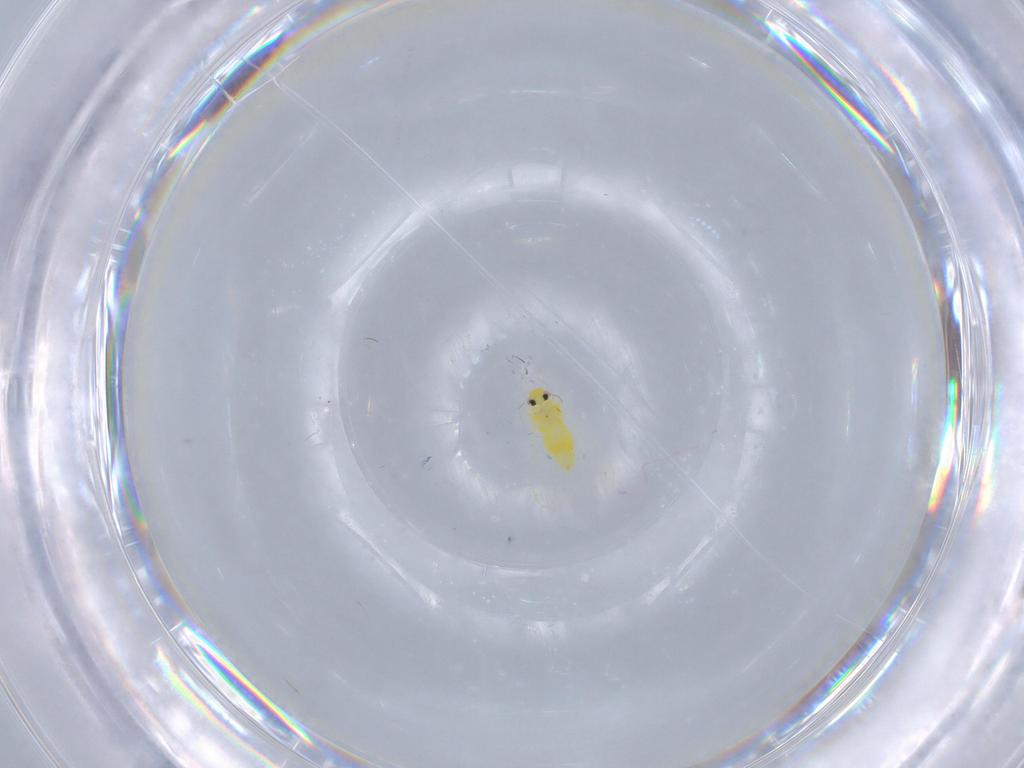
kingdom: Animalia
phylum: Arthropoda
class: Insecta
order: Hemiptera
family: Aleyrodidae
